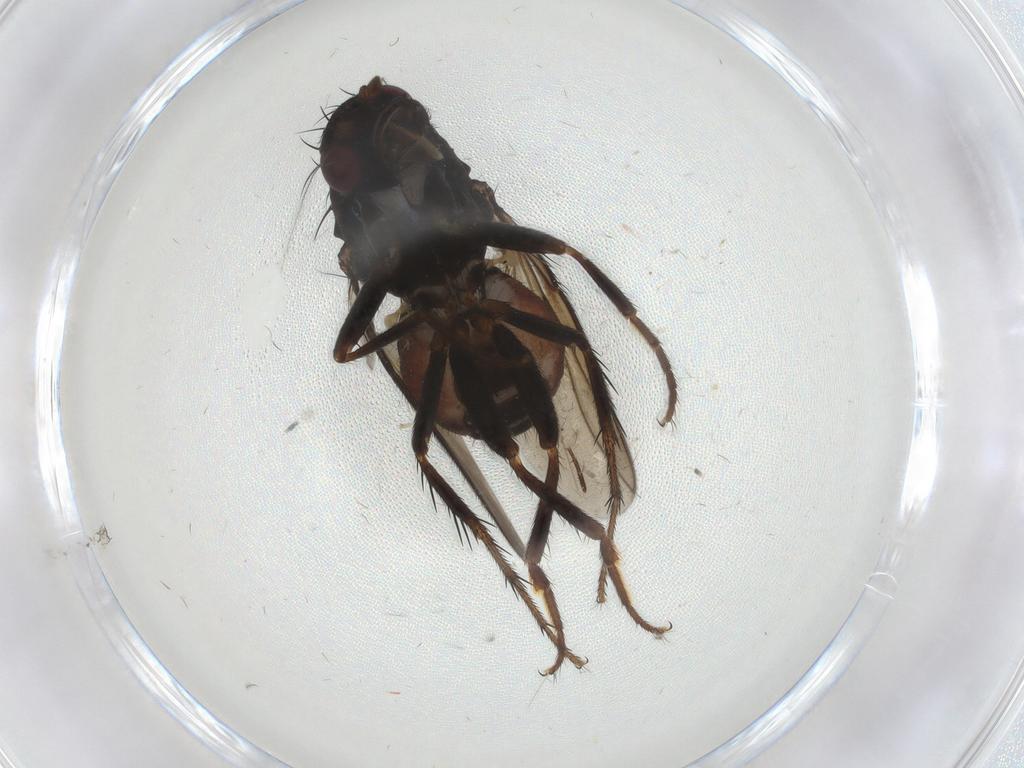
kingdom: Animalia
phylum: Arthropoda
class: Insecta
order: Diptera
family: Sphaeroceridae
